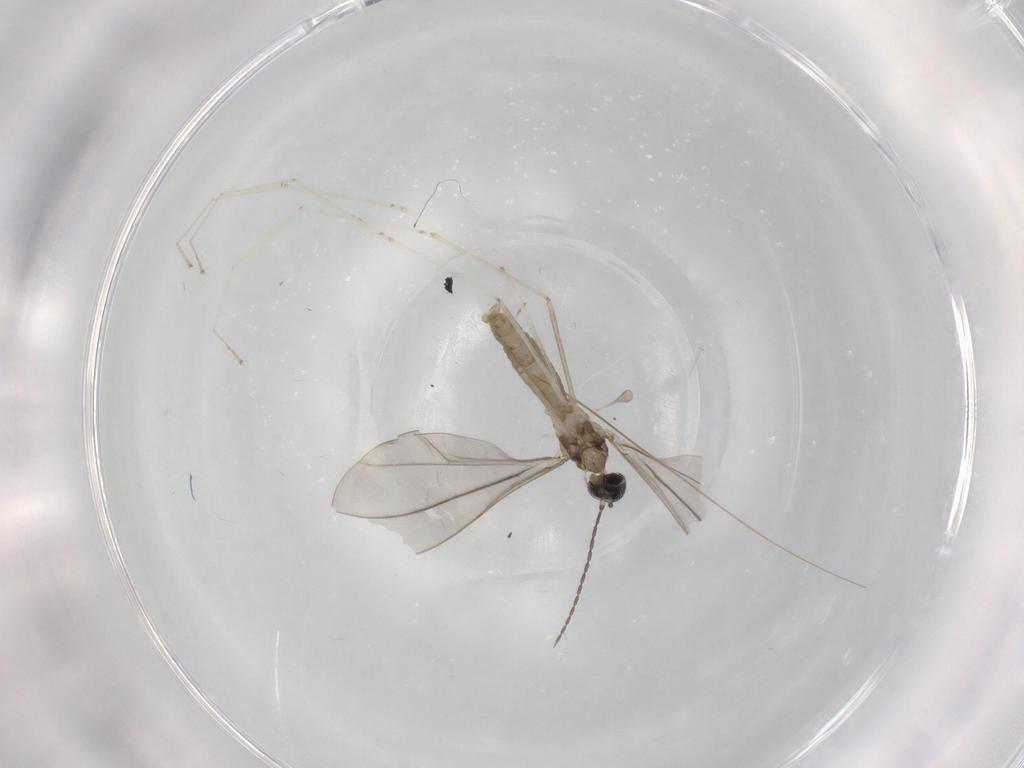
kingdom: Animalia
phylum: Arthropoda
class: Insecta
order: Diptera
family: Cecidomyiidae
